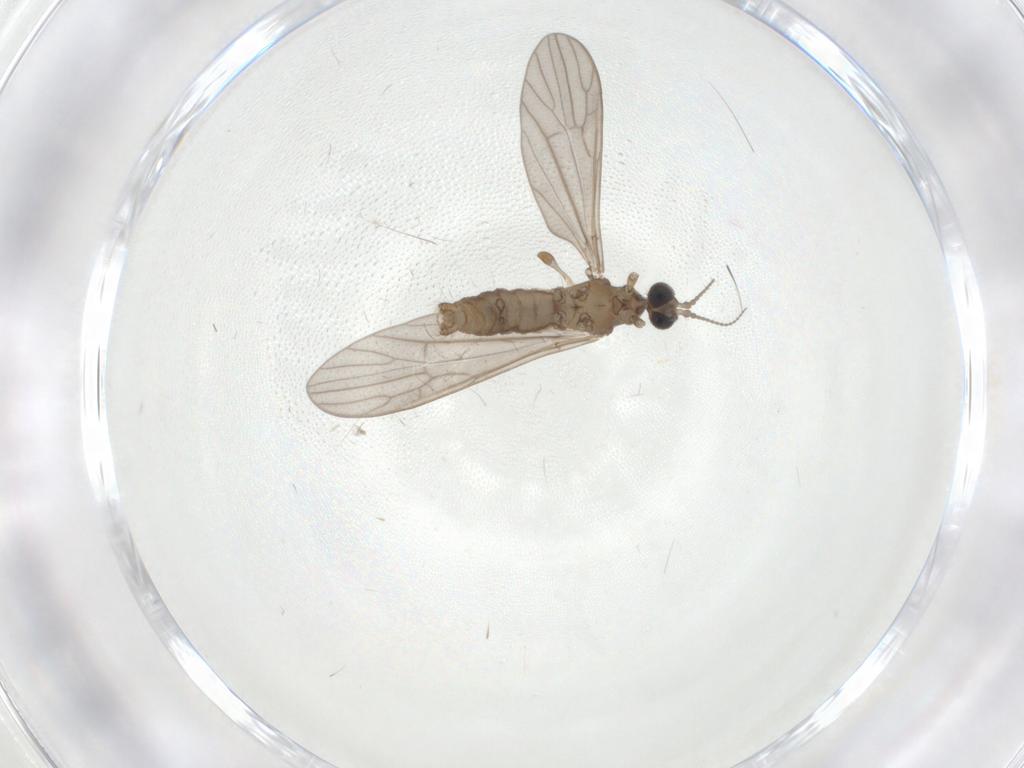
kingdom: Animalia
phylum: Arthropoda
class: Insecta
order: Diptera
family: Limoniidae
